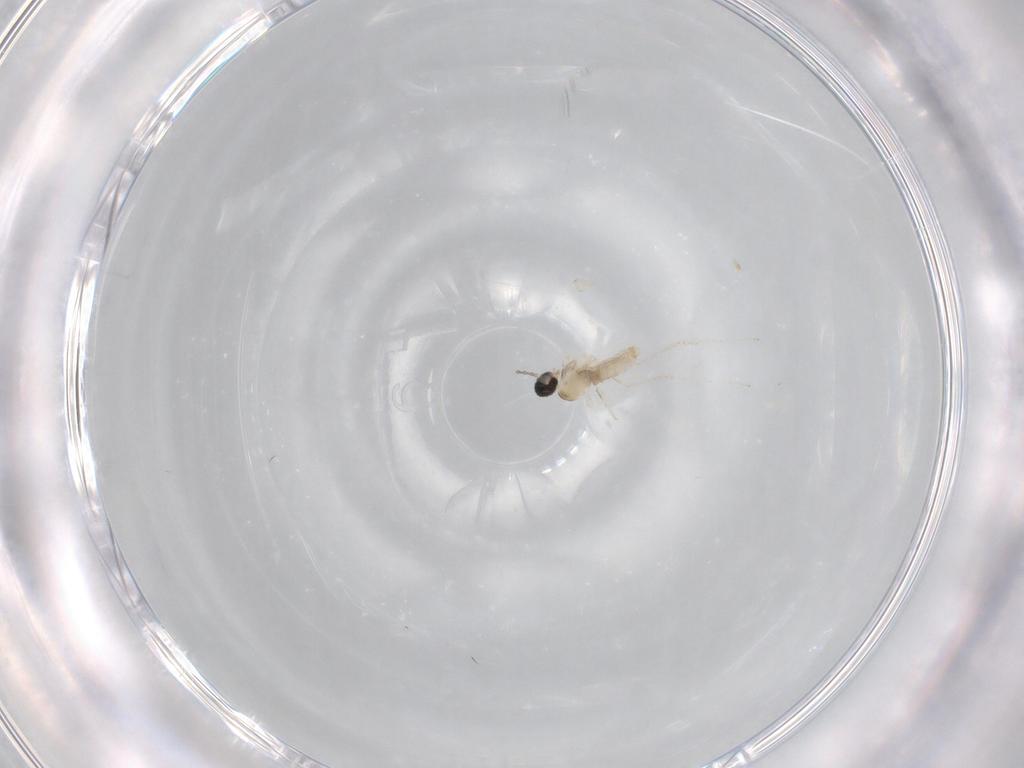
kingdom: Animalia
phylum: Arthropoda
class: Insecta
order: Diptera
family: Cecidomyiidae
